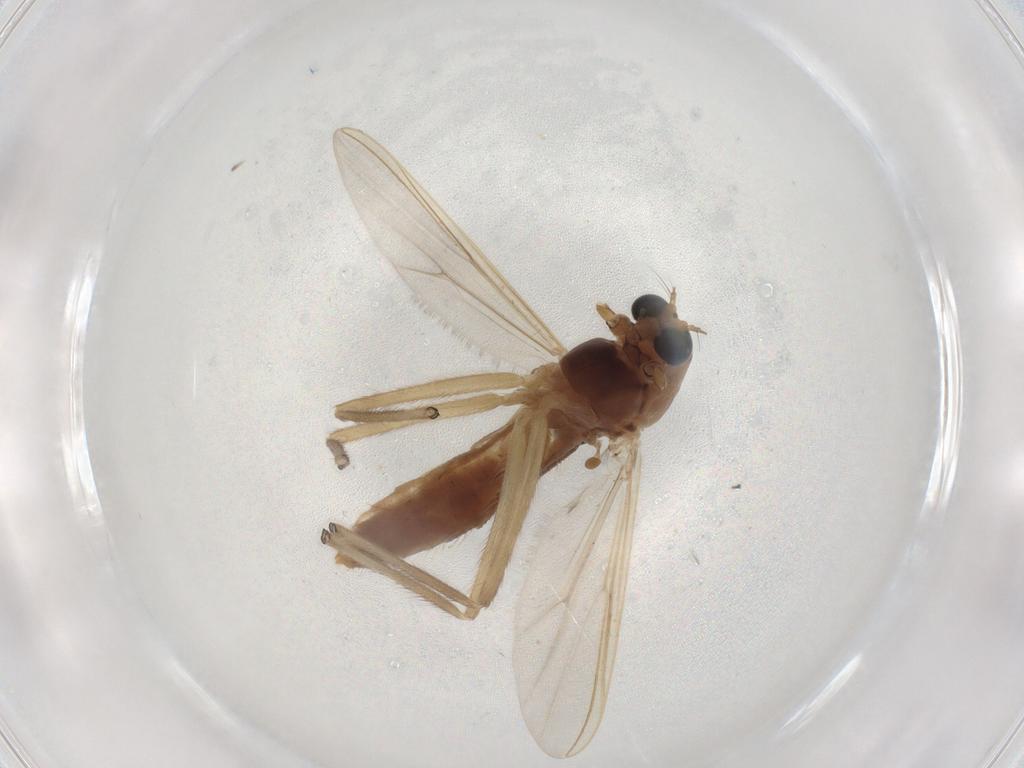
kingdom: Animalia
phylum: Arthropoda
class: Insecta
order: Diptera
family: Chironomidae
